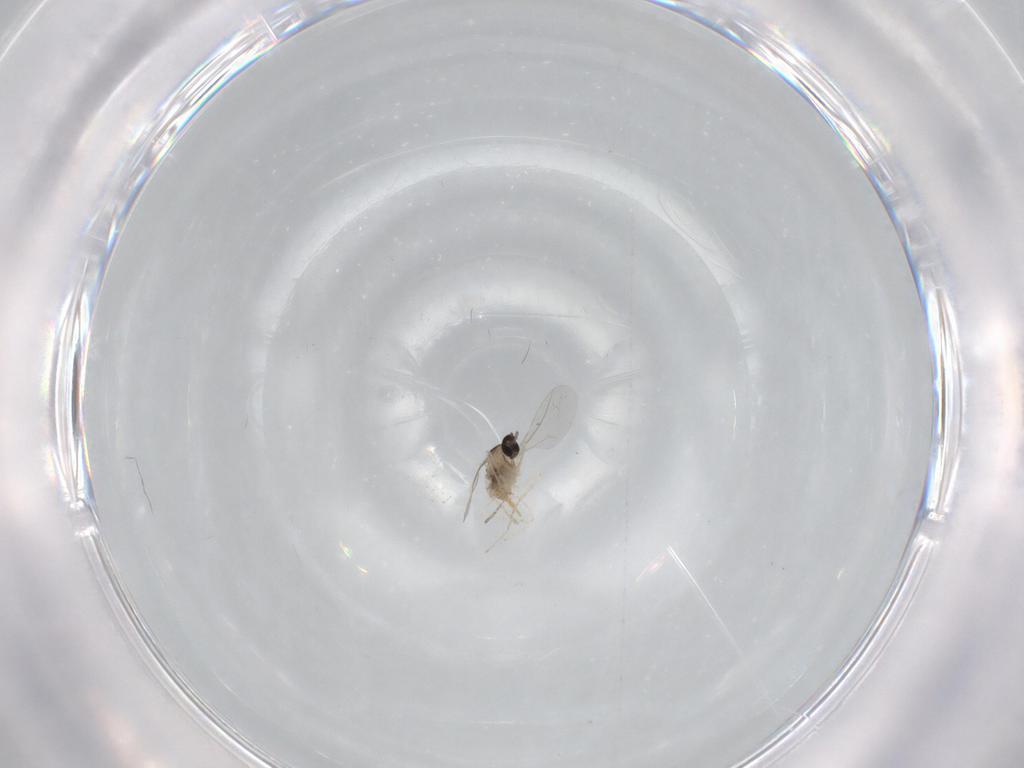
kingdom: Animalia
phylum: Arthropoda
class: Insecta
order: Diptera
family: Cecidomyiidae
